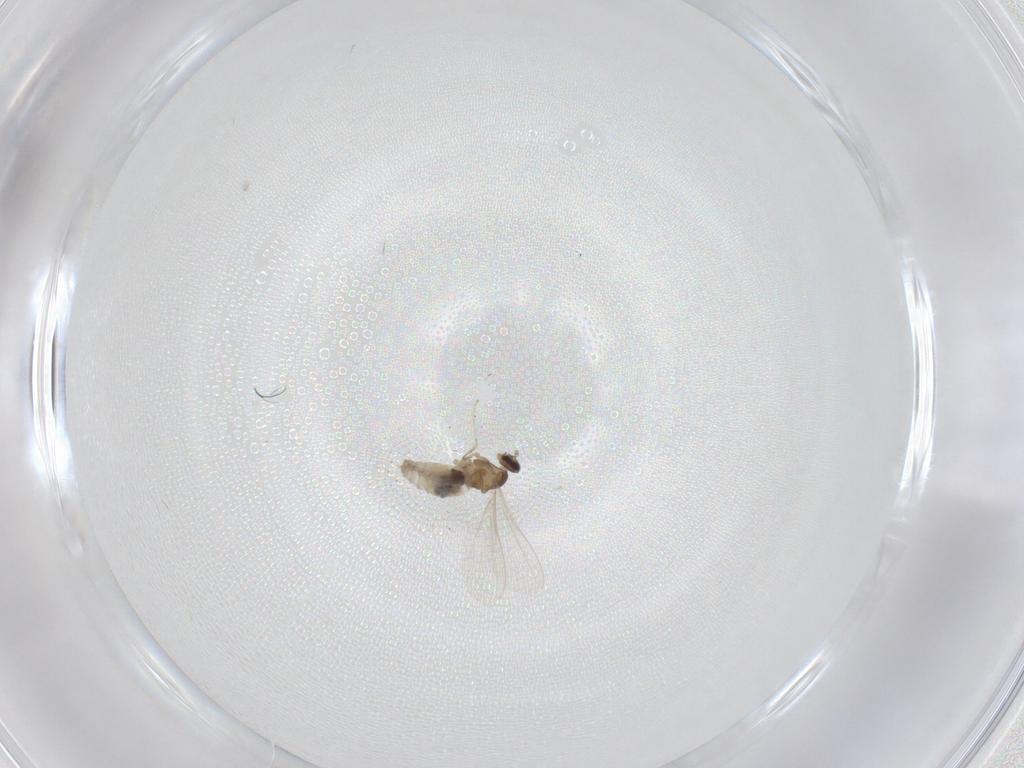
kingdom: Animalia
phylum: Arthropoda
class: Insecta
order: Diptera
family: Cecidomyiidae
